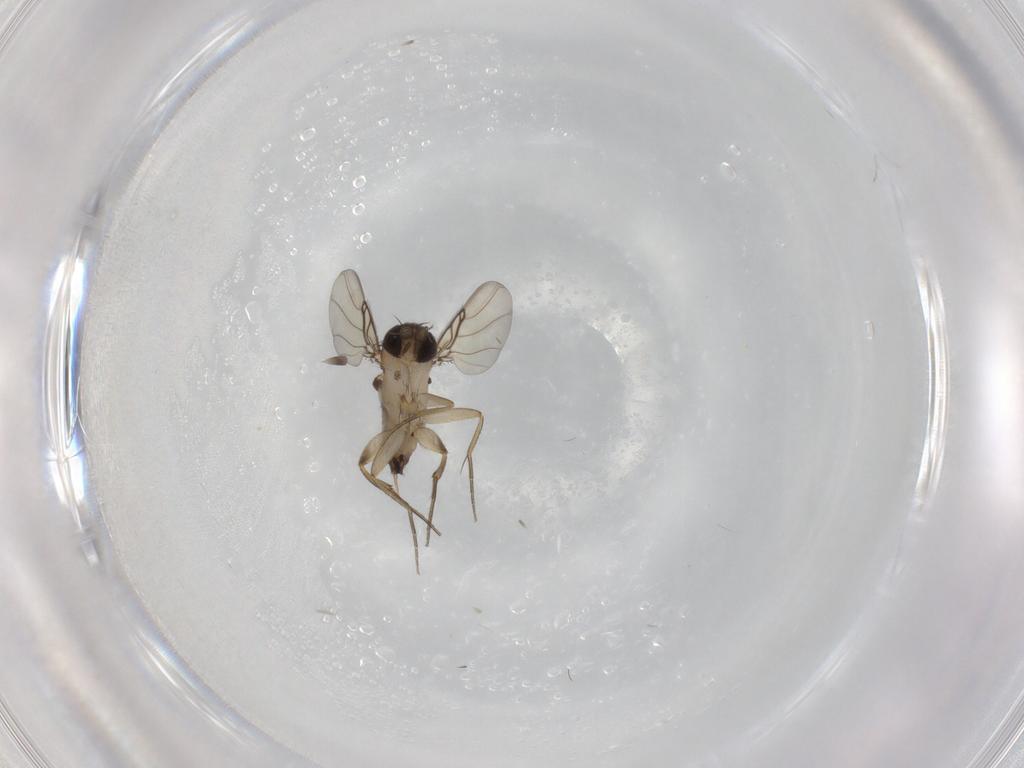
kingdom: Animalia
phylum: Arthropoda
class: Insecta
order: Diptera
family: Phoridae
